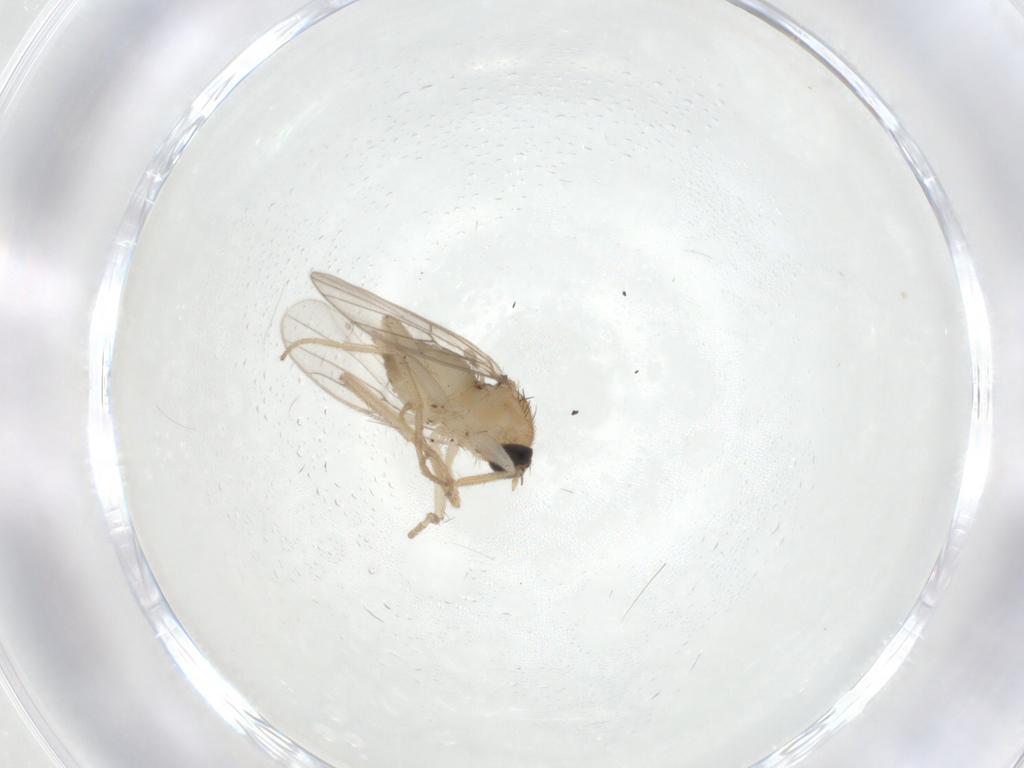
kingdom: Animalia
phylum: Arthropoda
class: Insecta
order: Diptera
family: Hybotidae
